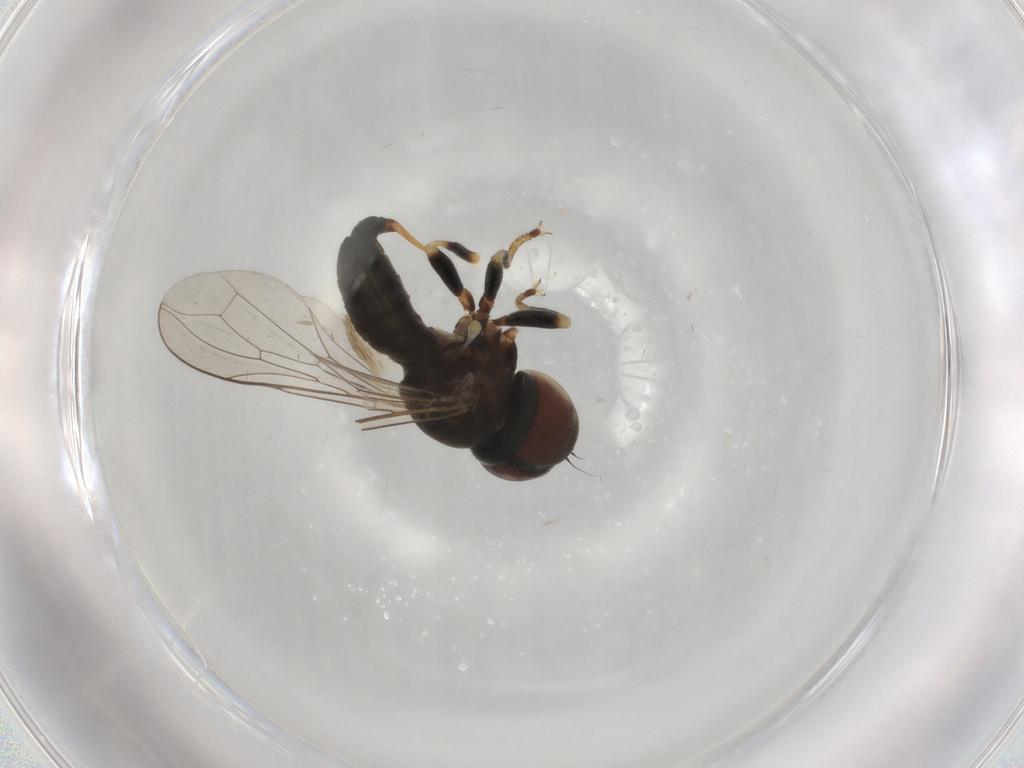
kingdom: Animalia
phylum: Arthropoda
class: Insecta
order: Diptera
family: Pipunculidae
